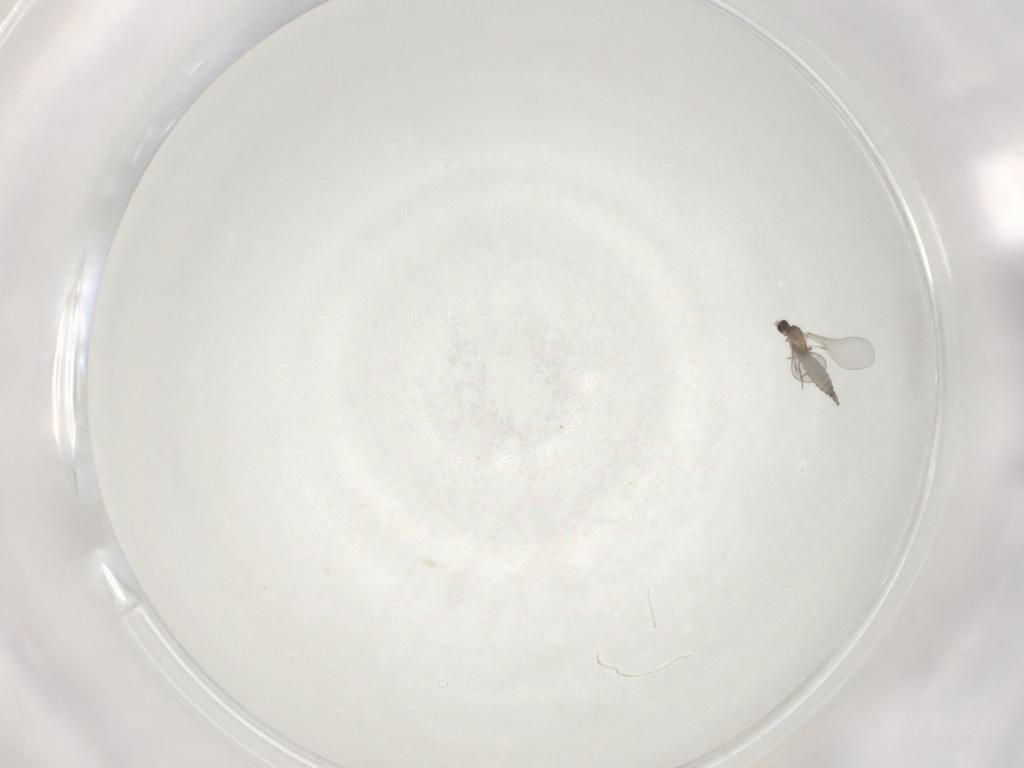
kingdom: Animalia
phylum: Arthropoda
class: Insecta
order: Diptera
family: Cecidomyiidae
